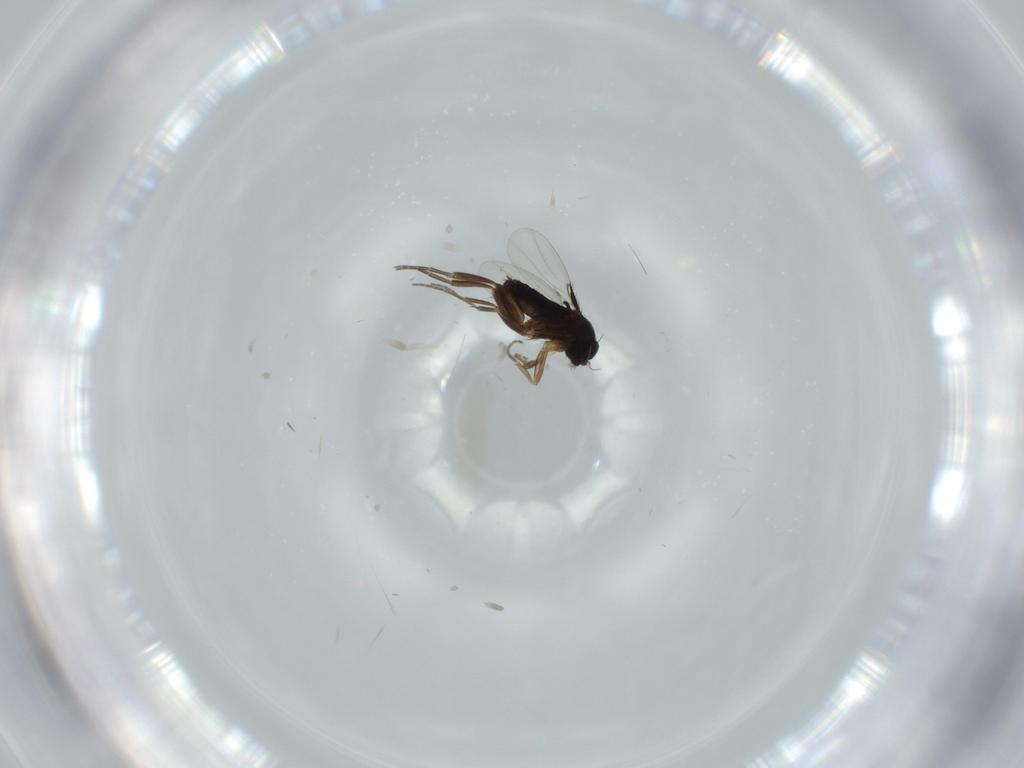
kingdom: Animalia
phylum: Arthropoda
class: Insecta
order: Diptera
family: Phoridae
